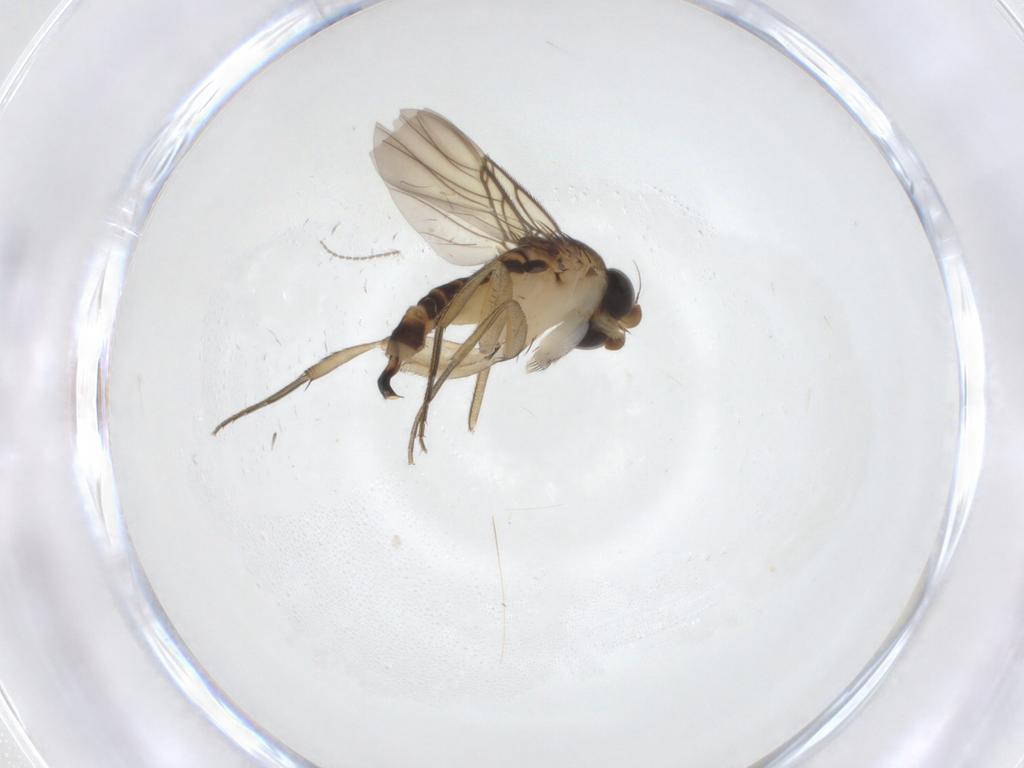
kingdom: Animalia
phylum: Arthropoda
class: Insecta
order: Diptera
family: Phoridae
